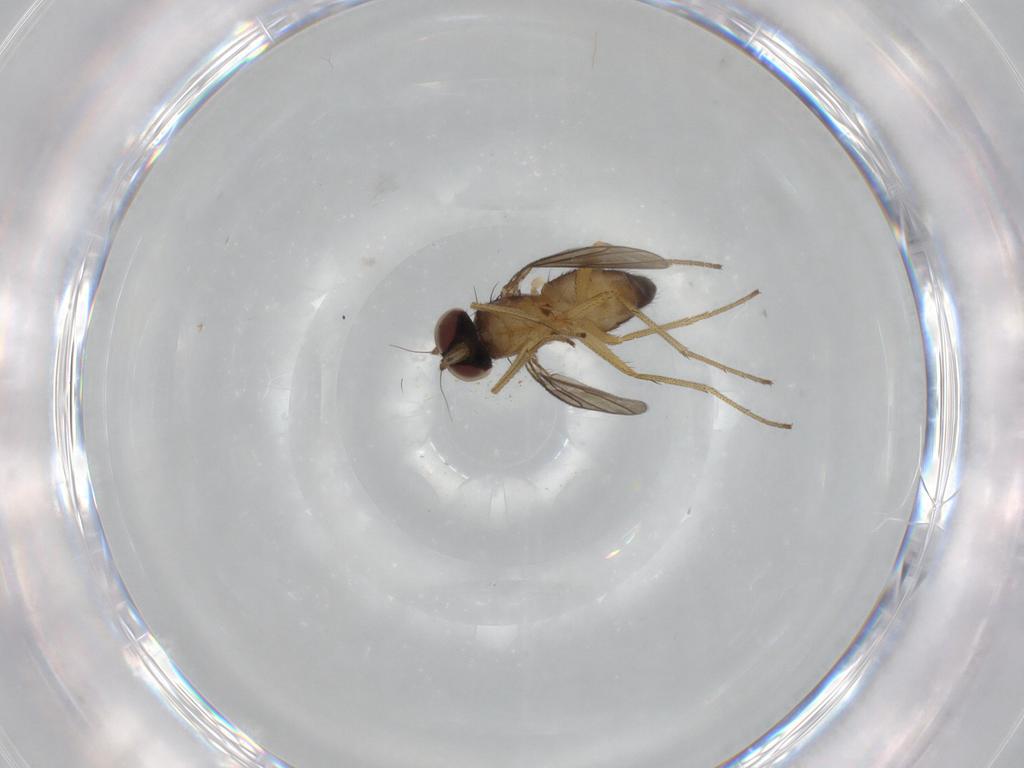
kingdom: Animalia
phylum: Arthropoda
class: Insecta
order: Diptera
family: Dolichopodidae
